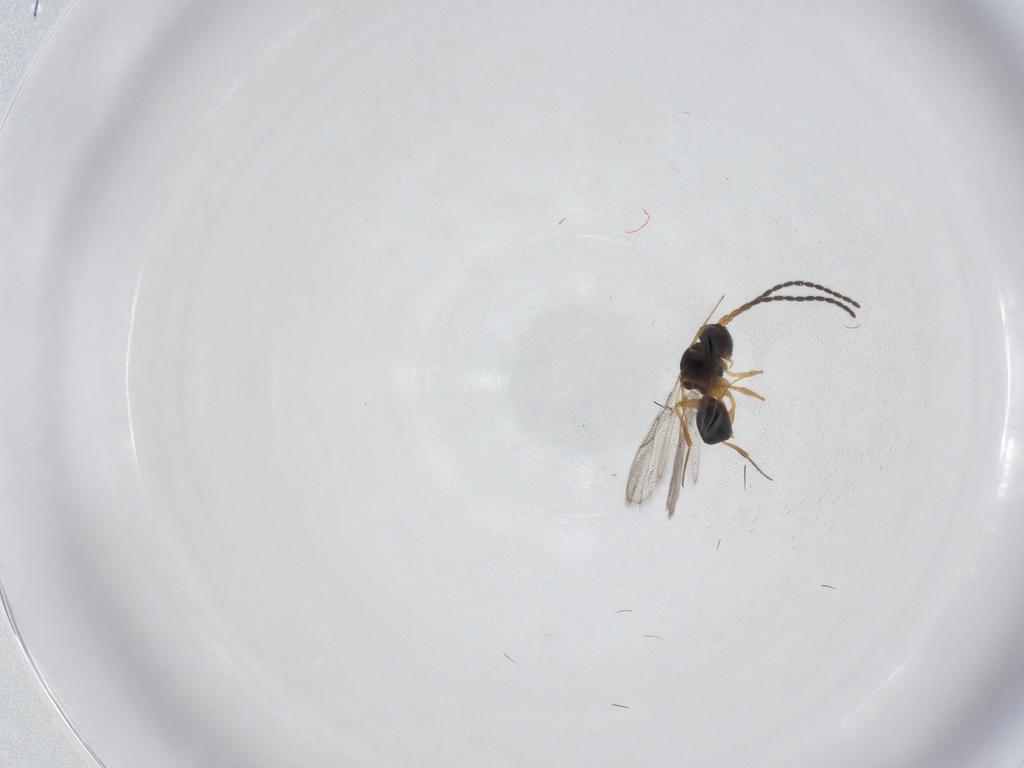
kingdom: Animalia
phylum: Arthropoda
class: Insecta
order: Hymenoptera
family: Figitidae
